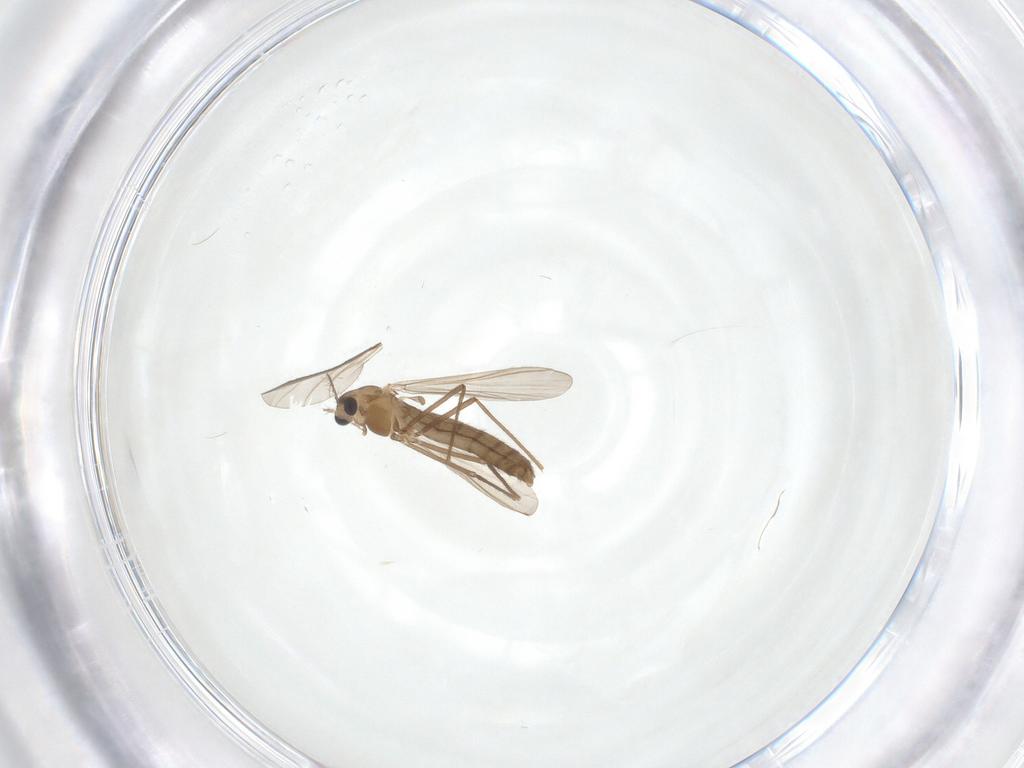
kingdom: Animalia
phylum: Arthropoda
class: Insecta
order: Diptera
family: Chironomidae
